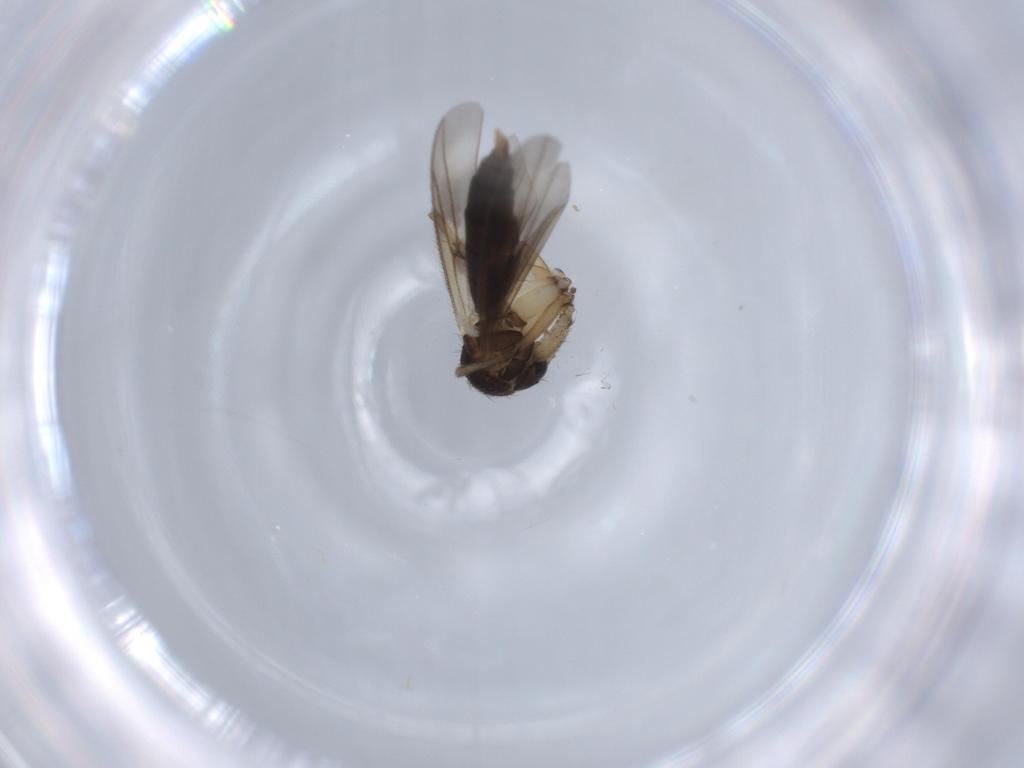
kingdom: Animalia
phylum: Arthropoda
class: Insecta
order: Diptera
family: Mycetophilidae
